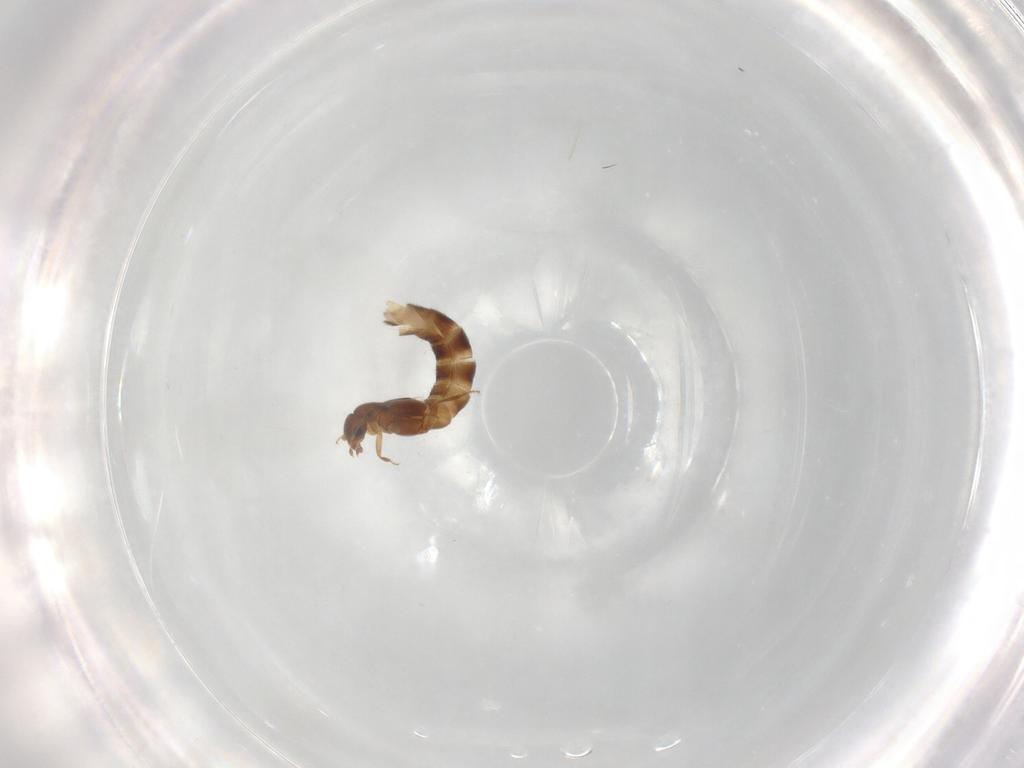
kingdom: Animalia
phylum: Arthropoda
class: Insecta
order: Coleoptera
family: Staphylinidae
